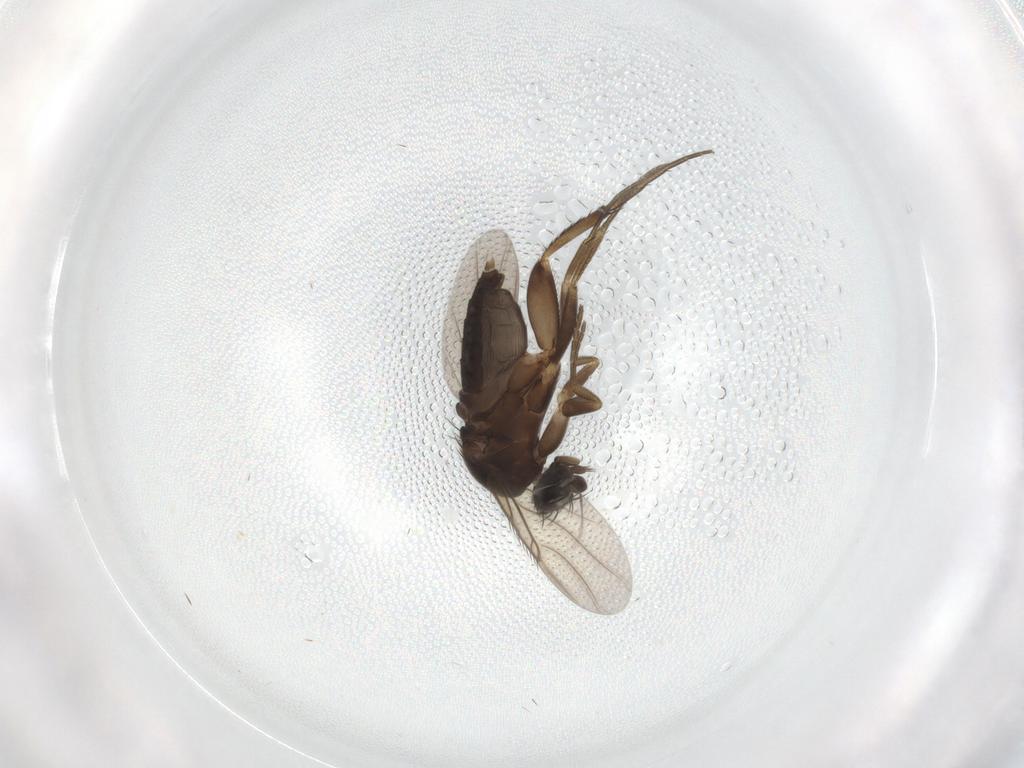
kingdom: Animalia
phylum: Arthropoda
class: Insecta
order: Diptera
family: Phoridae
